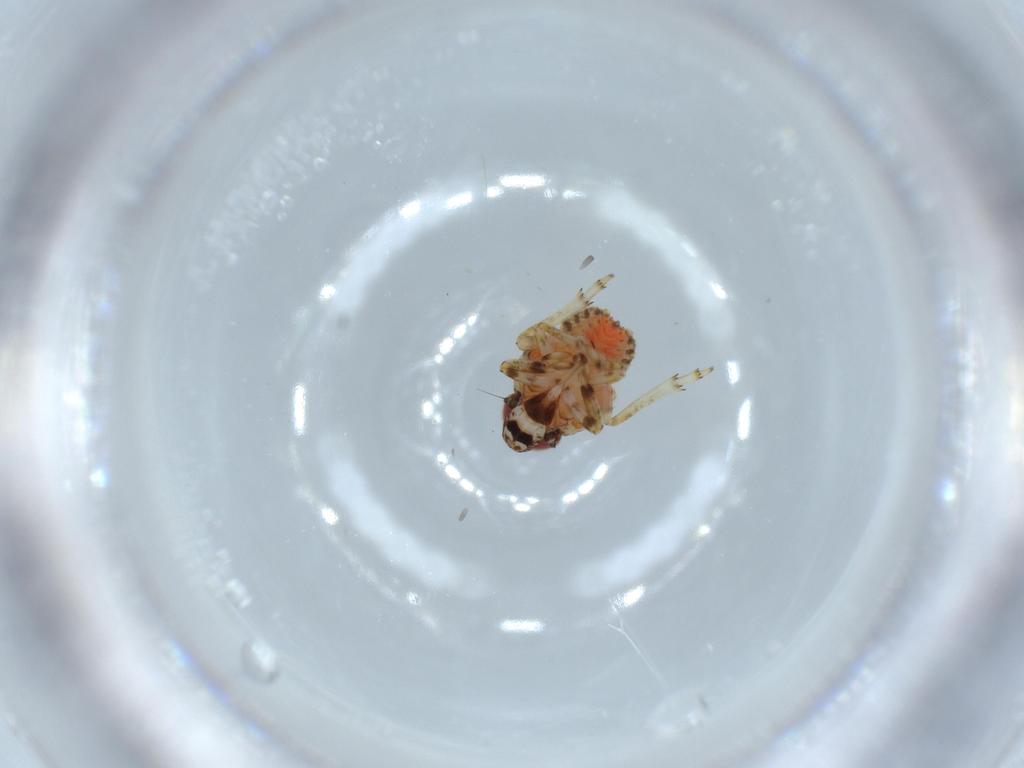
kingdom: Animalia
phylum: Arthropoda
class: Insecta
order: Hemiptera
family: Issidae
